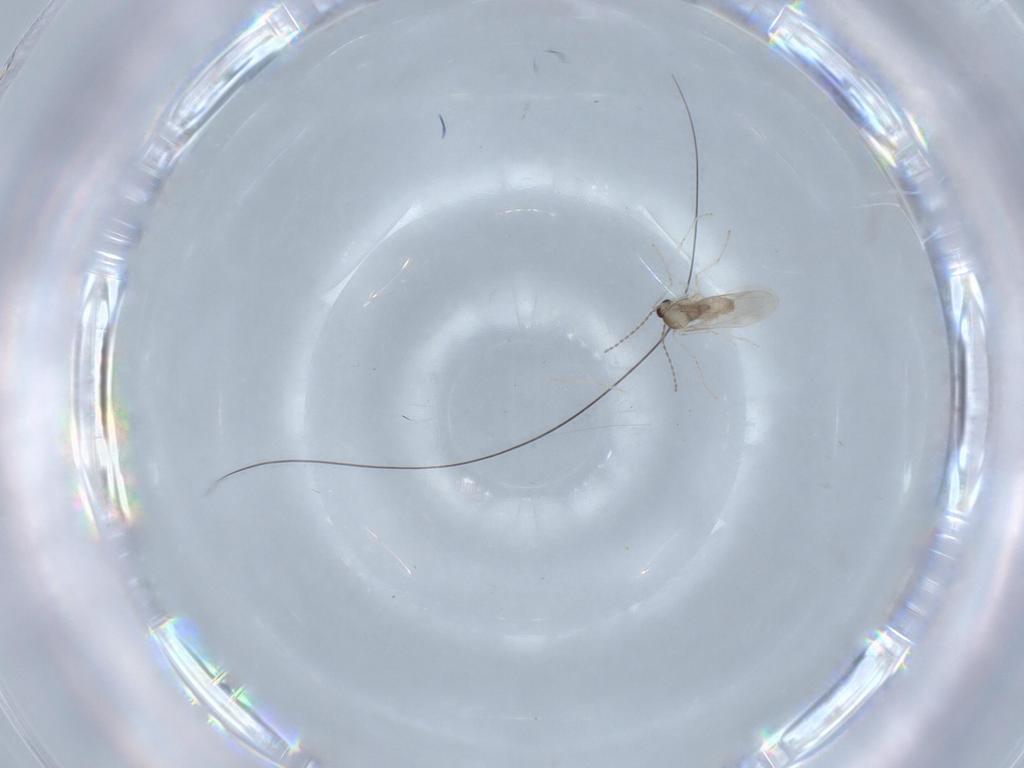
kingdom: Animalia
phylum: Arthropoda
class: Insecta
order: Diptera
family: Cecidomyiidae
